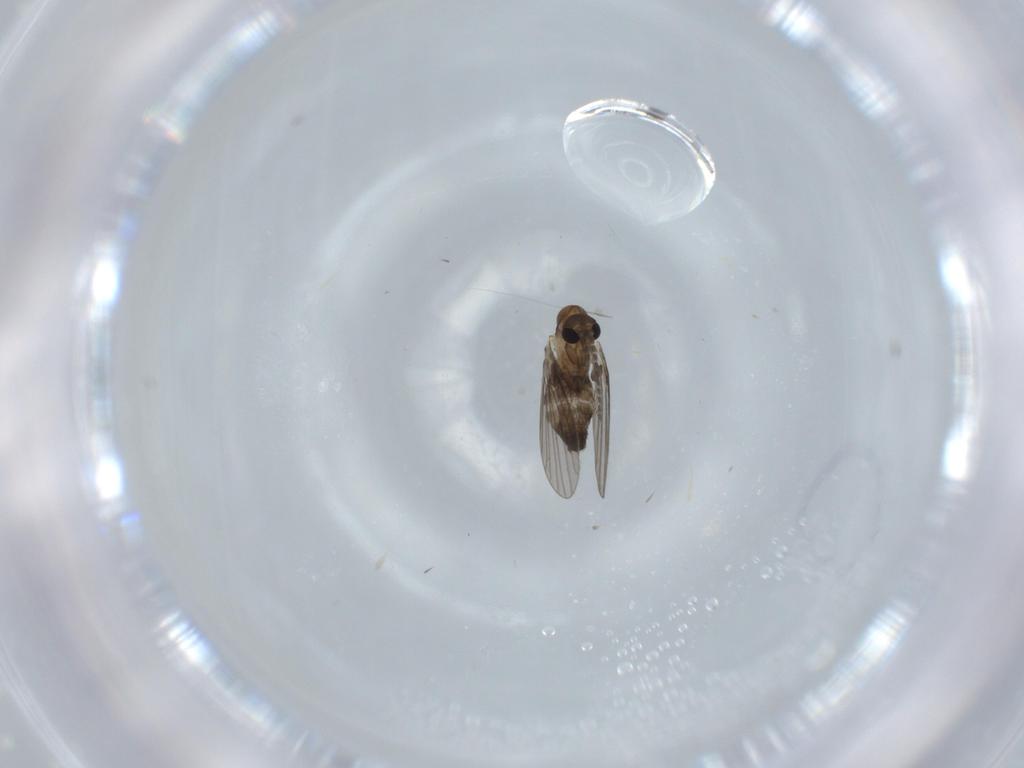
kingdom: Animalia
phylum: Arthropoda
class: Insecta
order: Diptera
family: Psychodidae
